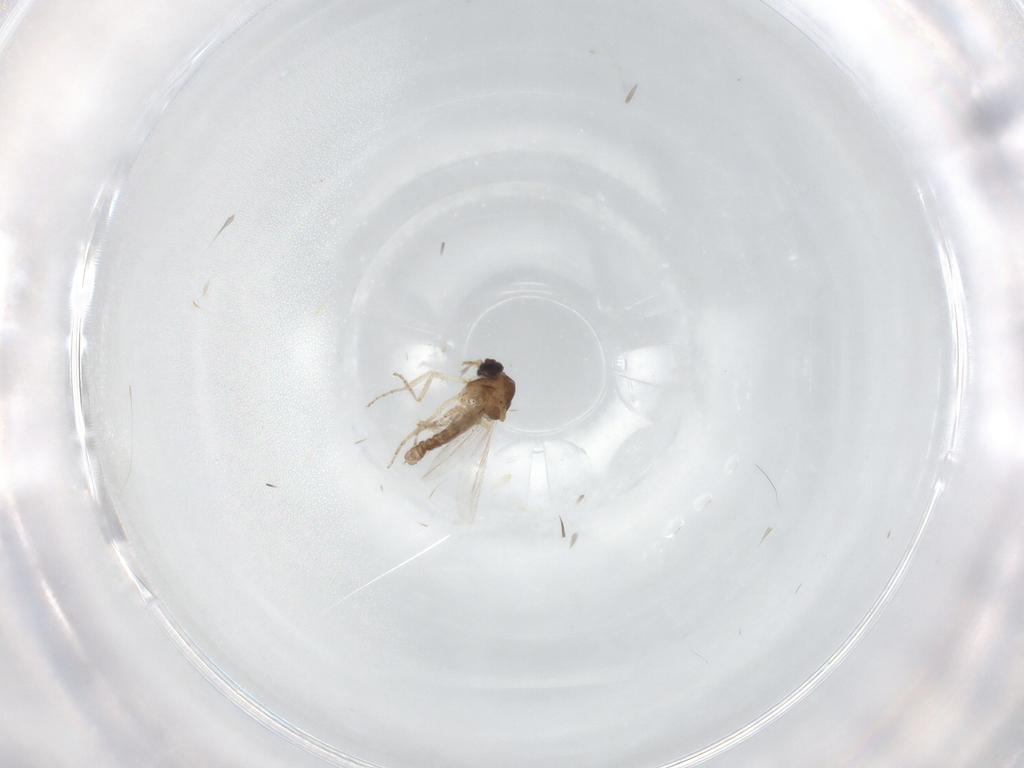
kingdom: Animalia
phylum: Arthropoda
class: Insecta
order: Diptera
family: Ceratopogonidae
